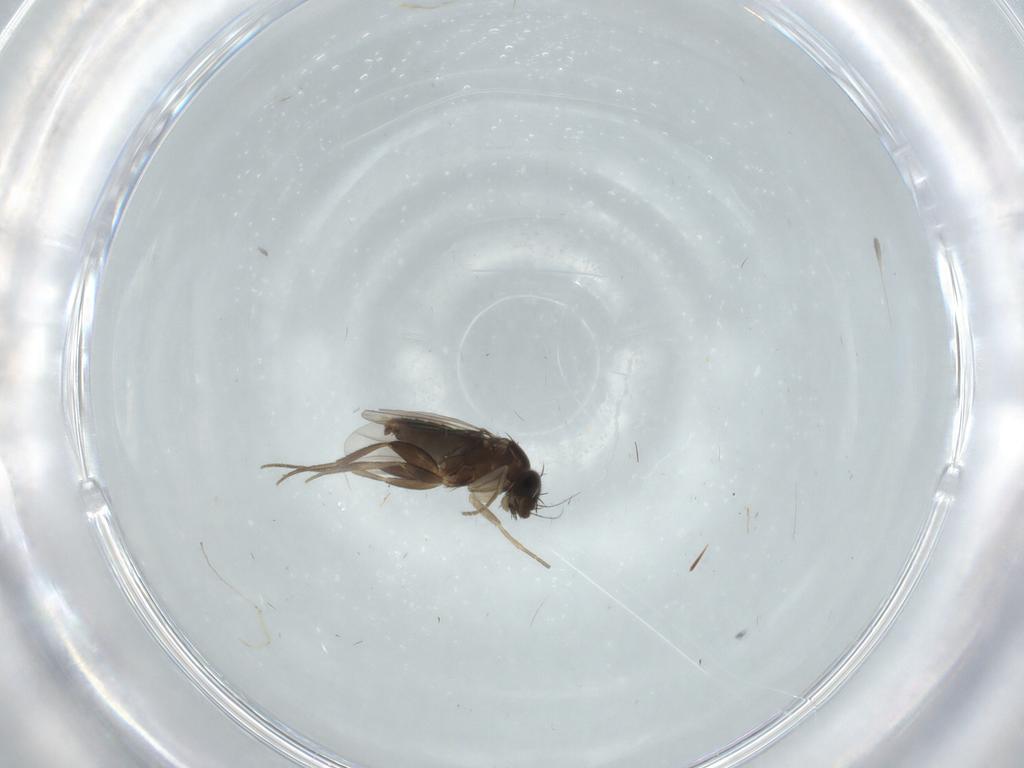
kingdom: Animalia
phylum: Arthropoda
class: Insecta
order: Diptera
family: Phoridae
